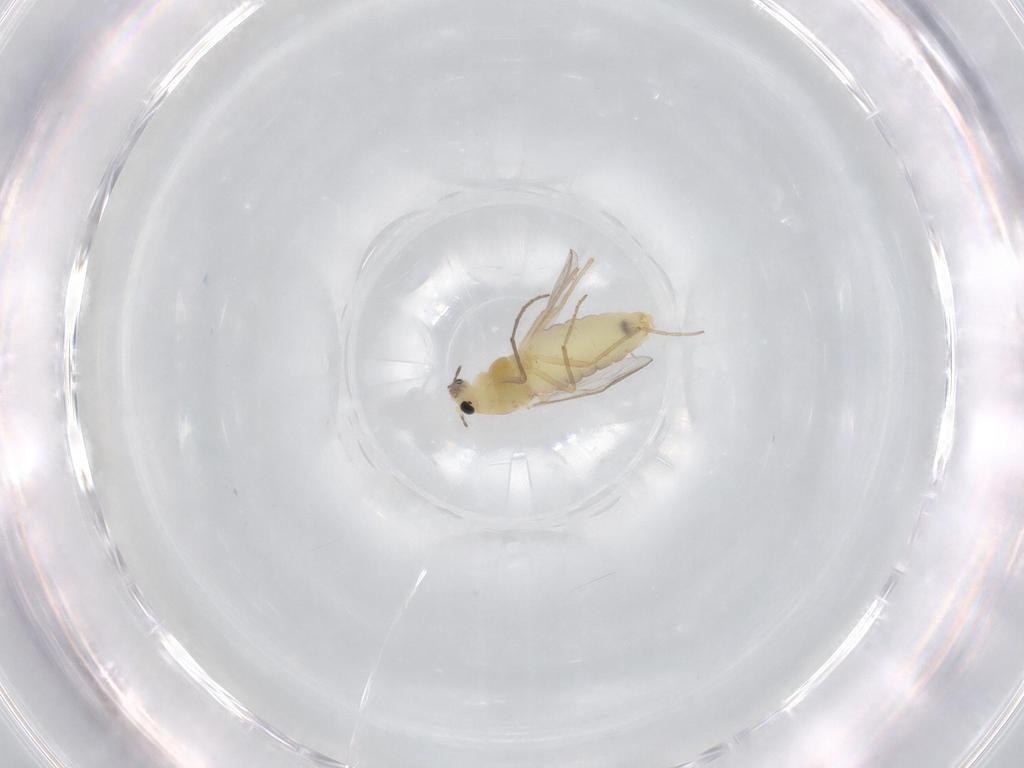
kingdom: Animalia
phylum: Arthropoda
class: Insecta
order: Diptera
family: Chironomidae
